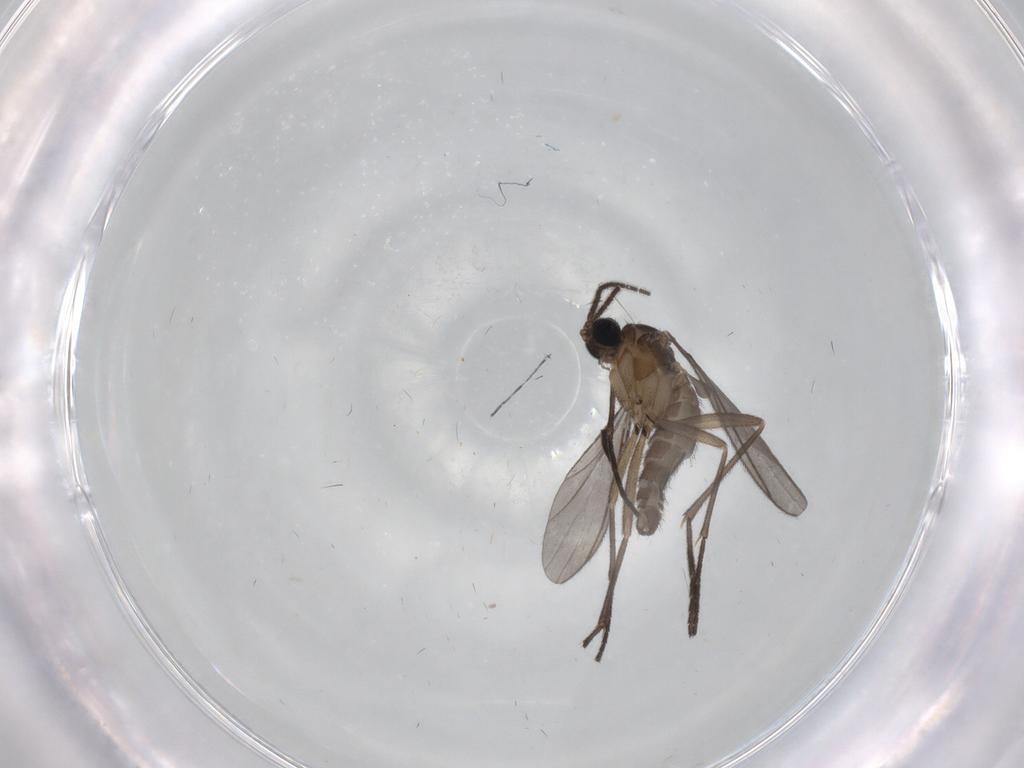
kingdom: Animalia
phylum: Arthropoda
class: Insecta
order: Diptera
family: Sciaridae
